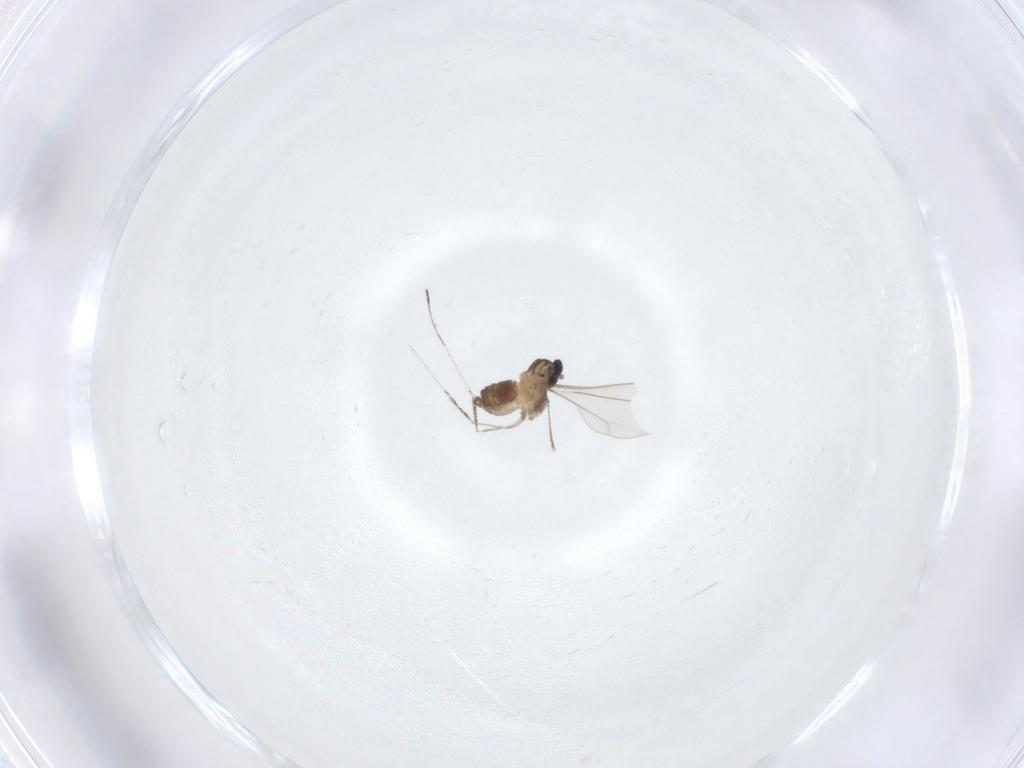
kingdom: Animalia
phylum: Arthropoda
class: Insecta
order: Diptera
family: Cecidomyiidae
